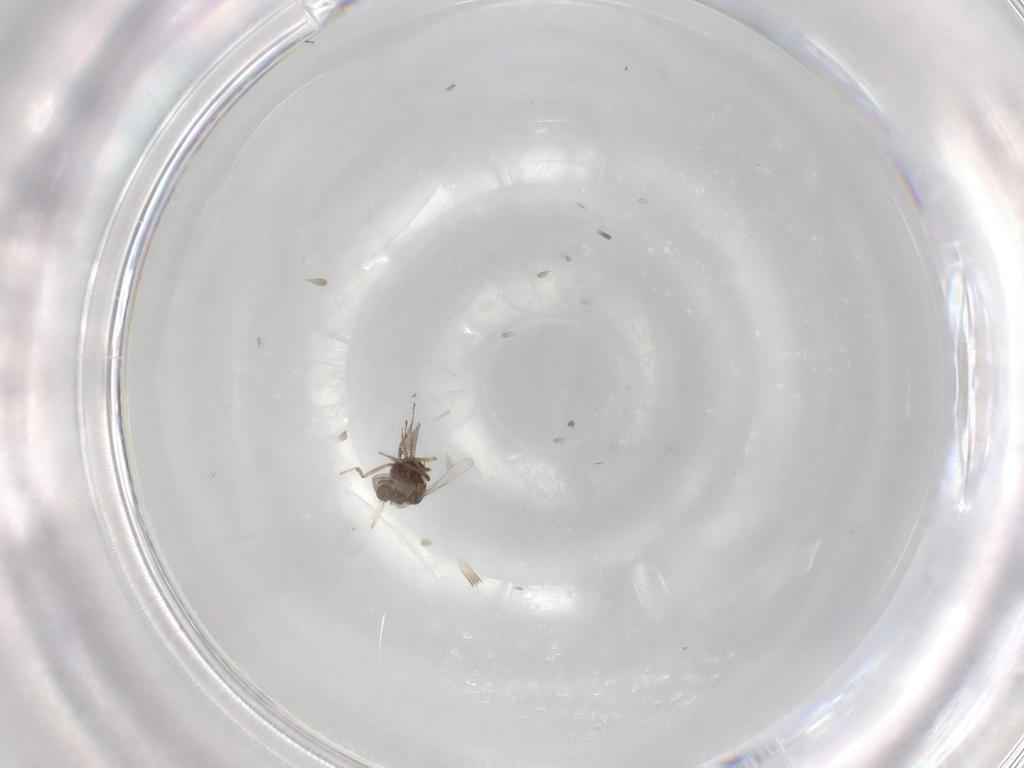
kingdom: Animalia
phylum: Arthropoda
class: Insecta
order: Diptera
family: Ceratopogonidae
